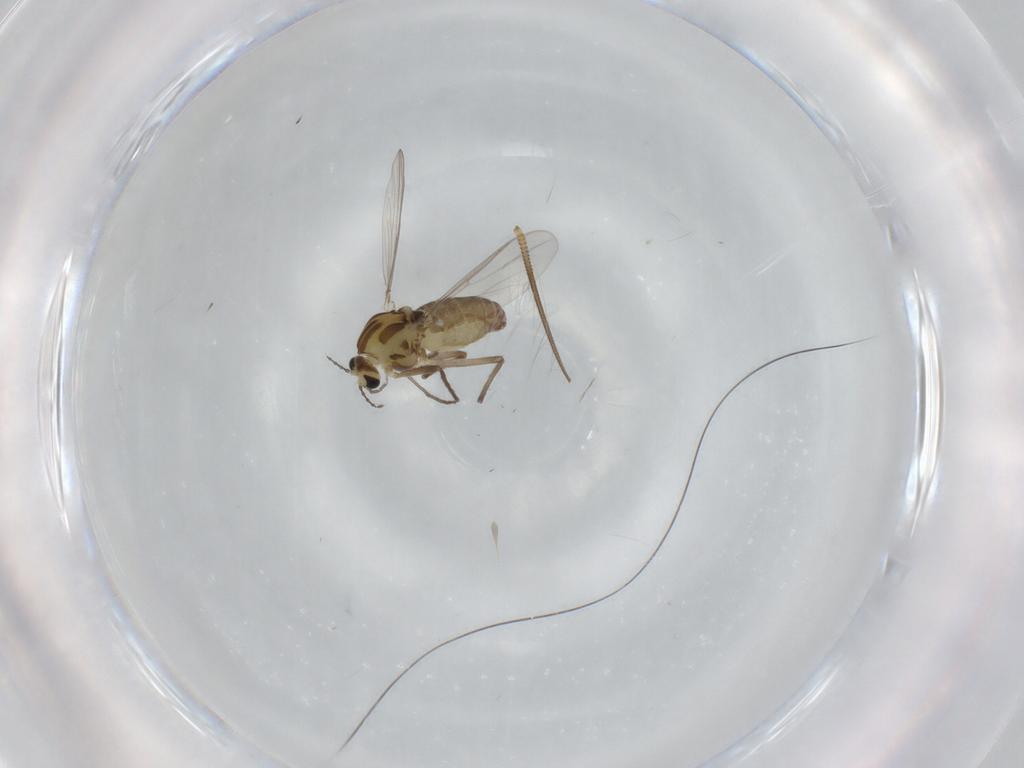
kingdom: Animalia
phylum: Arthropoda
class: Insecta
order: Diptera
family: Chironomidae
